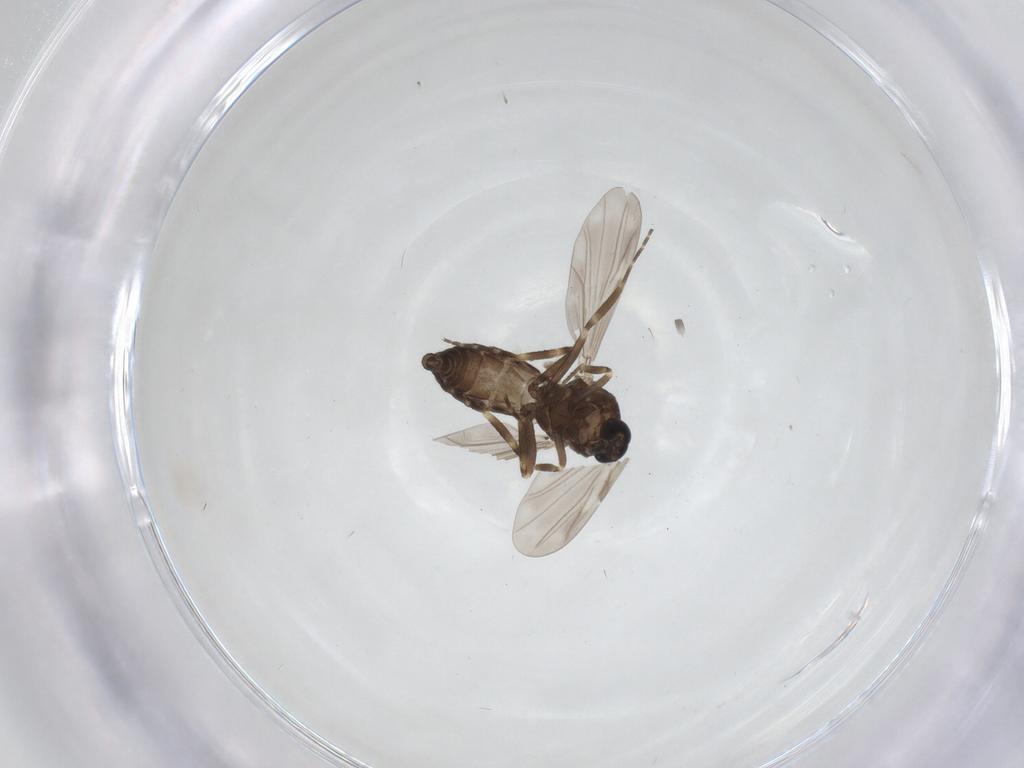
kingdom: Animalia
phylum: Arthropoda
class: Insecta
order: Diptera
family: Ceratopogonidae
